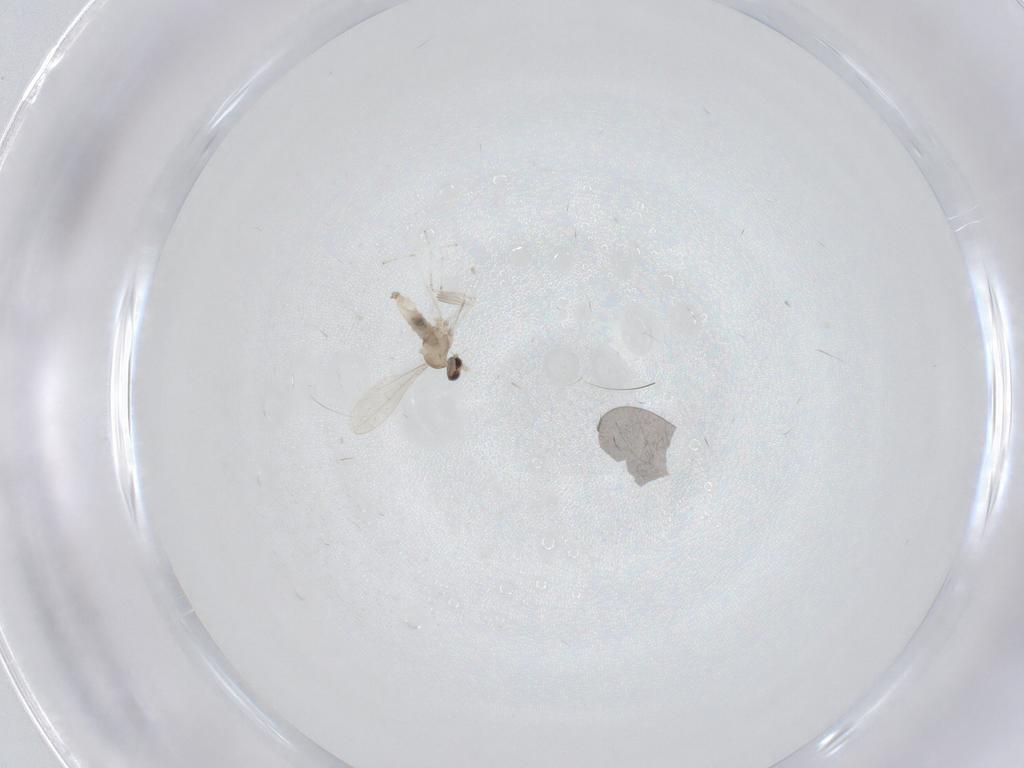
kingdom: Animalia
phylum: Arthropoda
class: Insecta
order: Diptera
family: Cecidomyiidae
